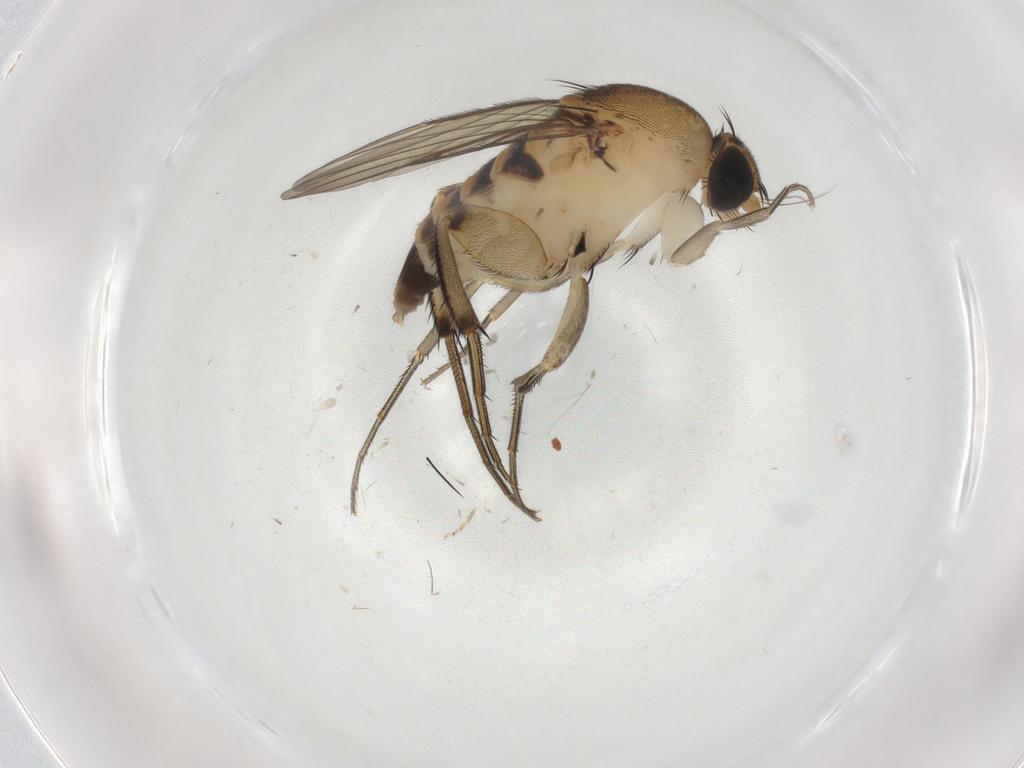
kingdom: Animalia
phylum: Arthropoda
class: Insecta
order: Diptera
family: Phoridae
